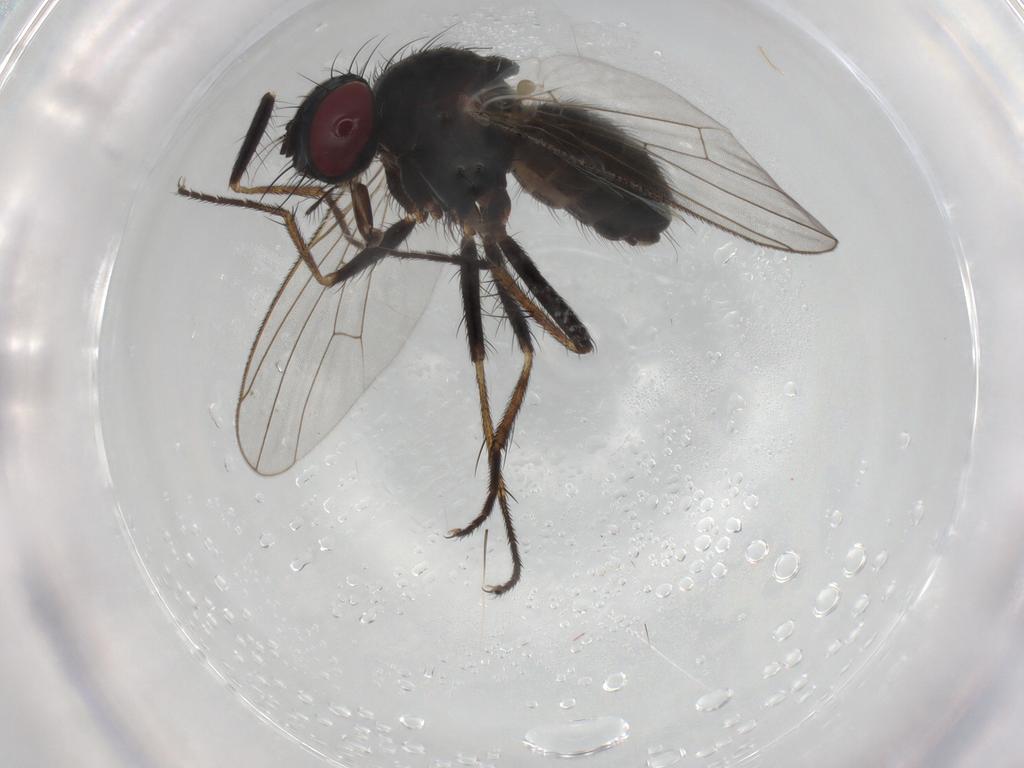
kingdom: Animalia
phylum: Arthropoda
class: Insecta
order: Diptera
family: Muscidae
